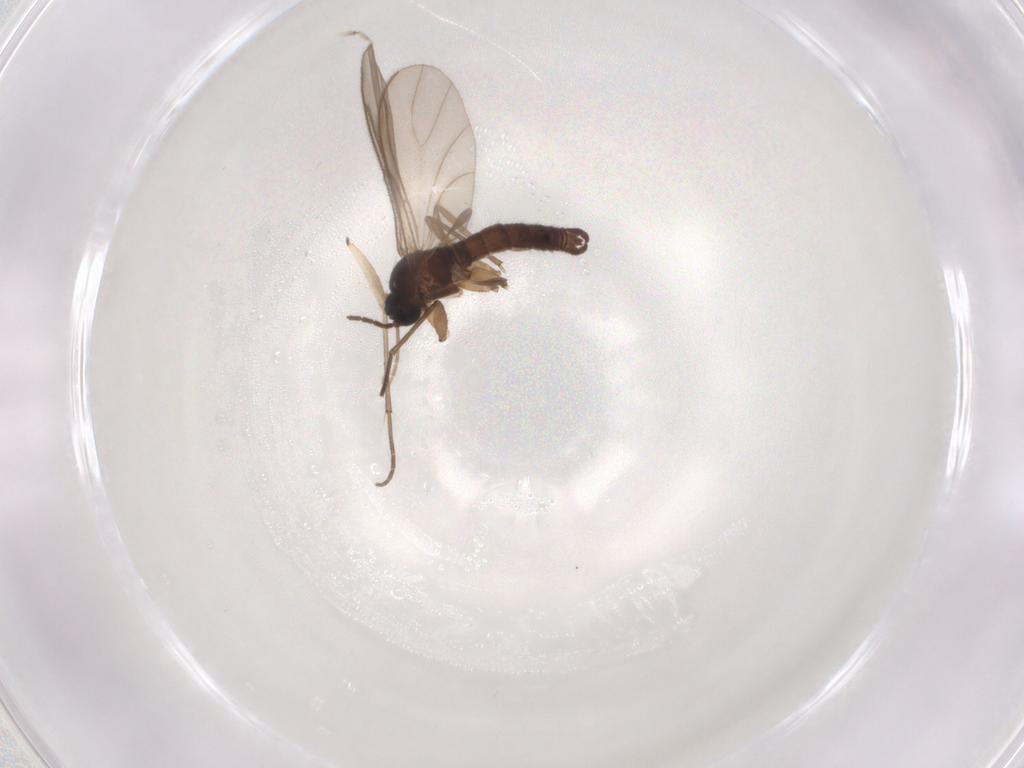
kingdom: Animalia
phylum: Arthropoda
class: Insecta
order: Diptera
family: Sciaridae
